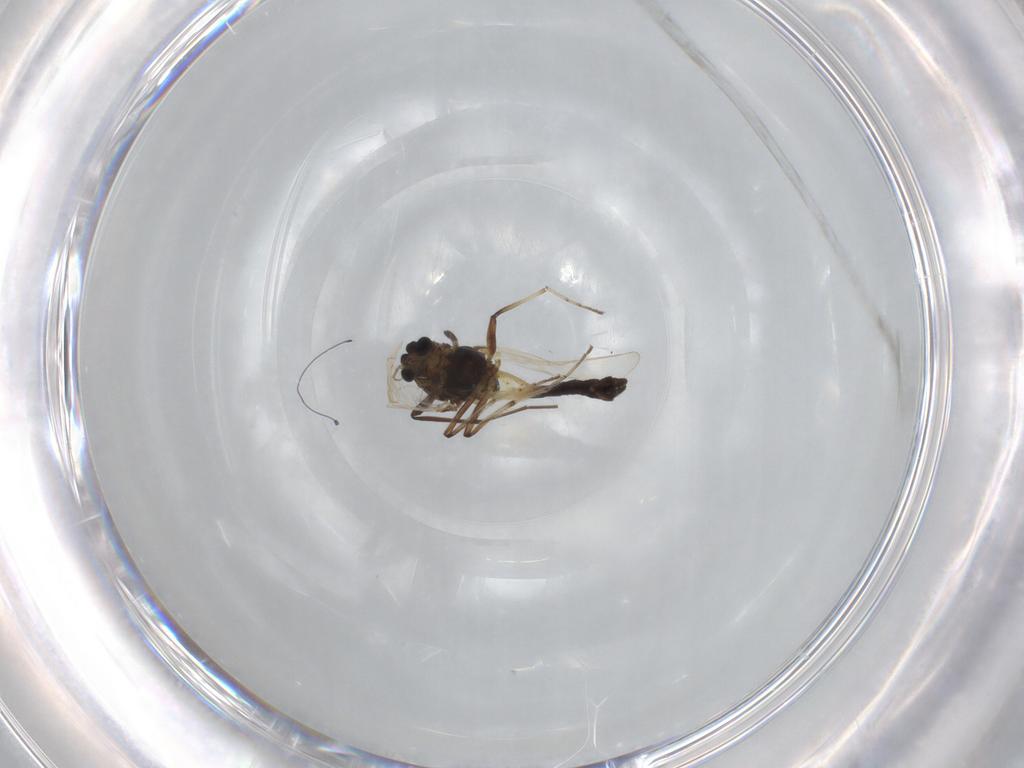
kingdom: Animalia
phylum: Arthropoda
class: Insecta
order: Diptera
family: Chironomidae
